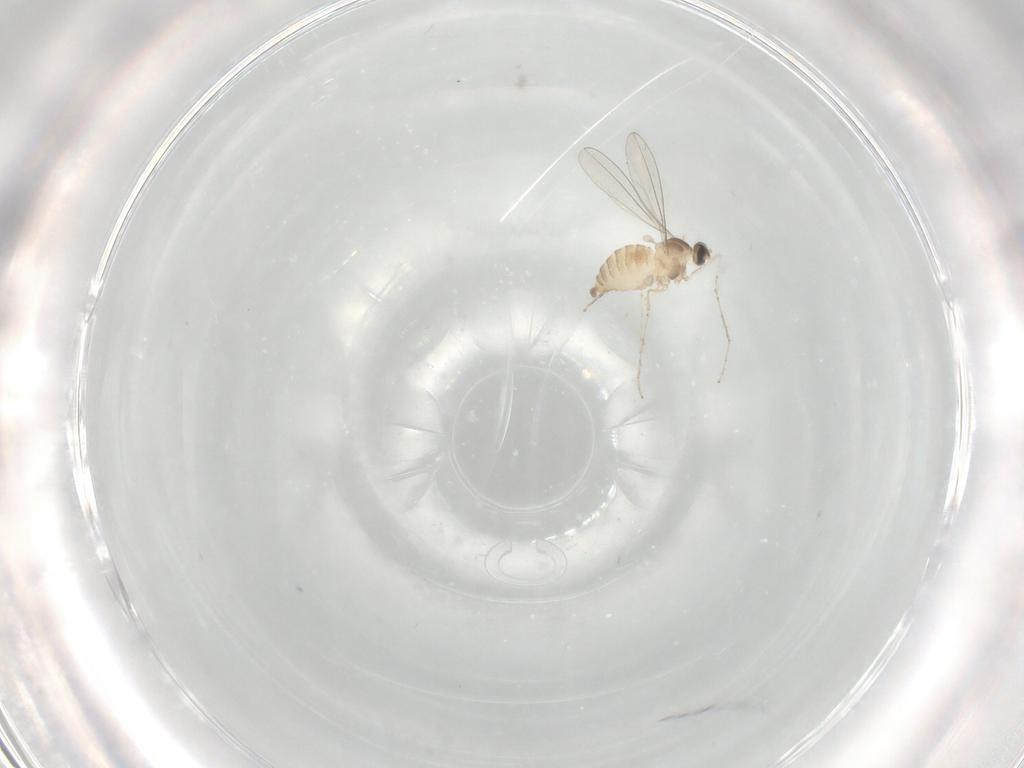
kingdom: Animalia
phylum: Arthropoda
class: Insecta
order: Diptera
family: Cecidomyiidae
